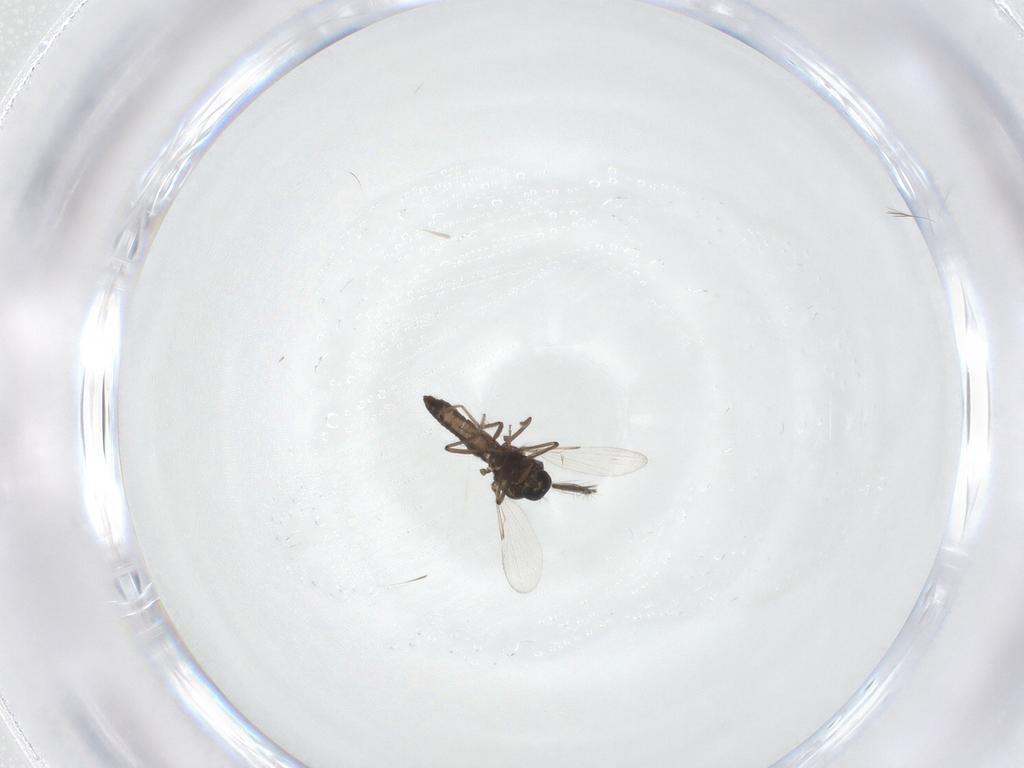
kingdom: Animalia
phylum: Arthropoda
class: Insecta
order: Diptera
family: Ceratopogonidae
